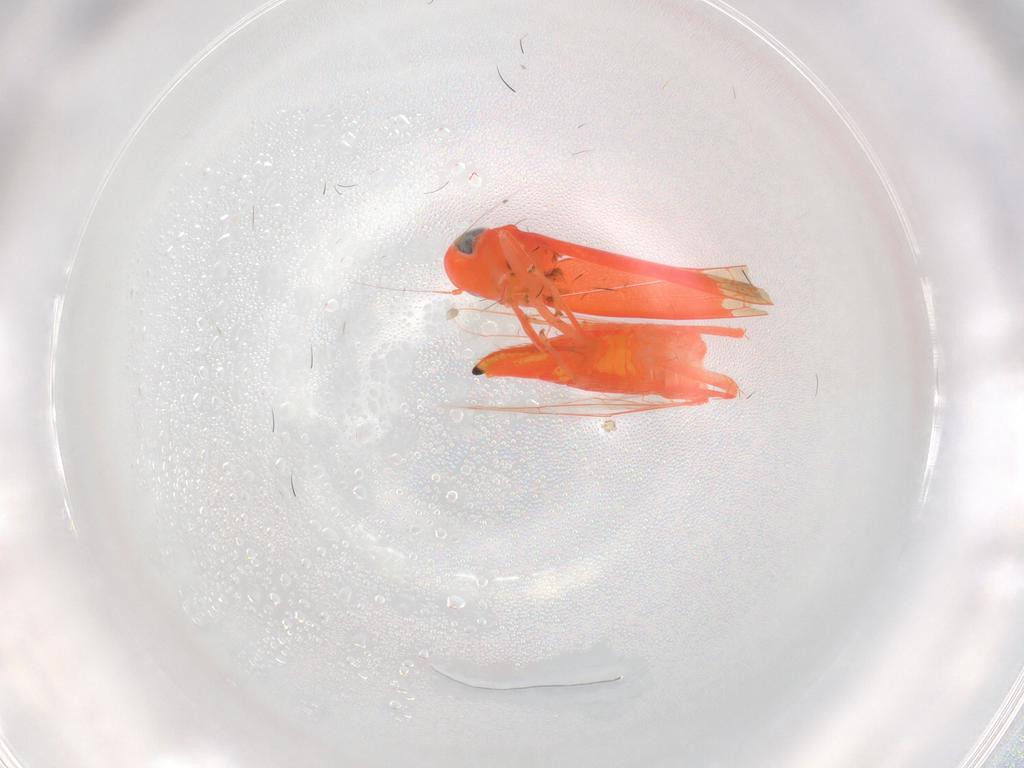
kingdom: Animalia
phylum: Arthropoda
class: Insecta
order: Hemiptera
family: Cicadellidae
